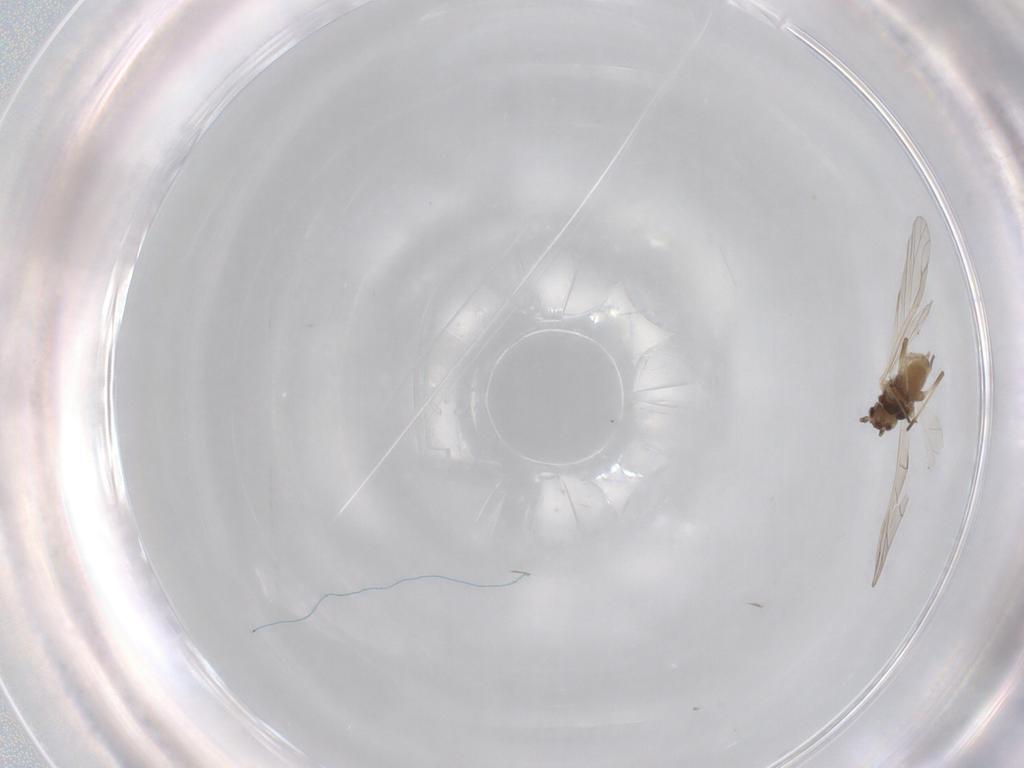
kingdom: Animalia
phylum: Arthropoda
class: Insecta
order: Hemiptera
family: Aphididae
